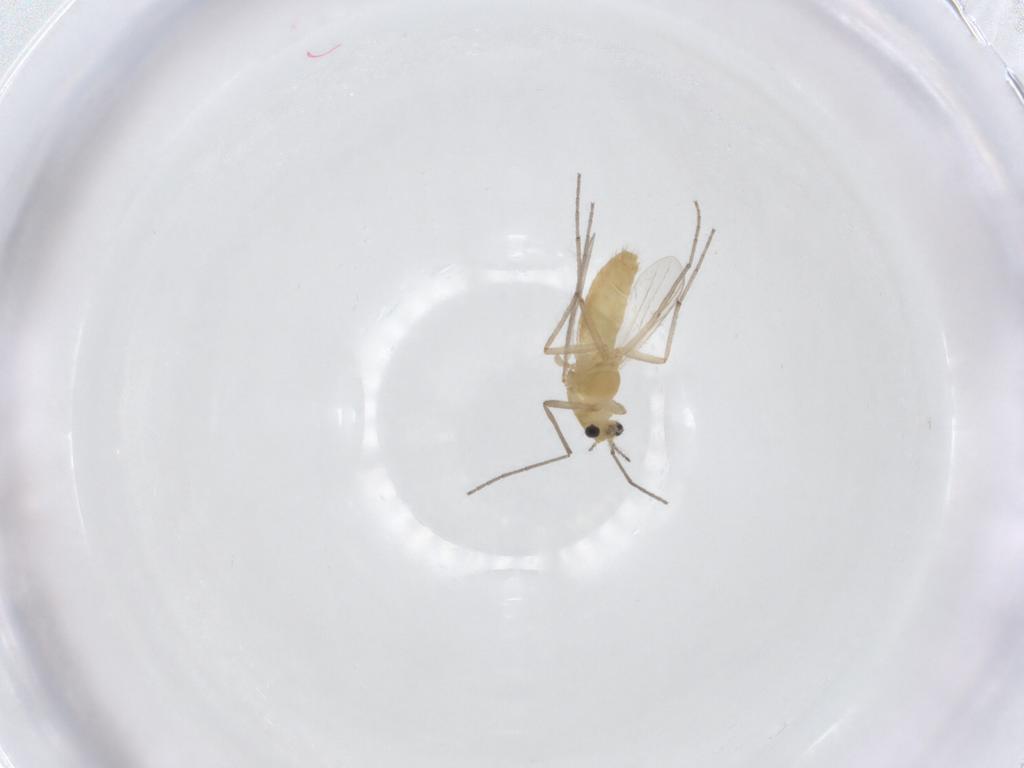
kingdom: Animalia
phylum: Arthropoda
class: Insecta
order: Diptera
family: Chironomidae
